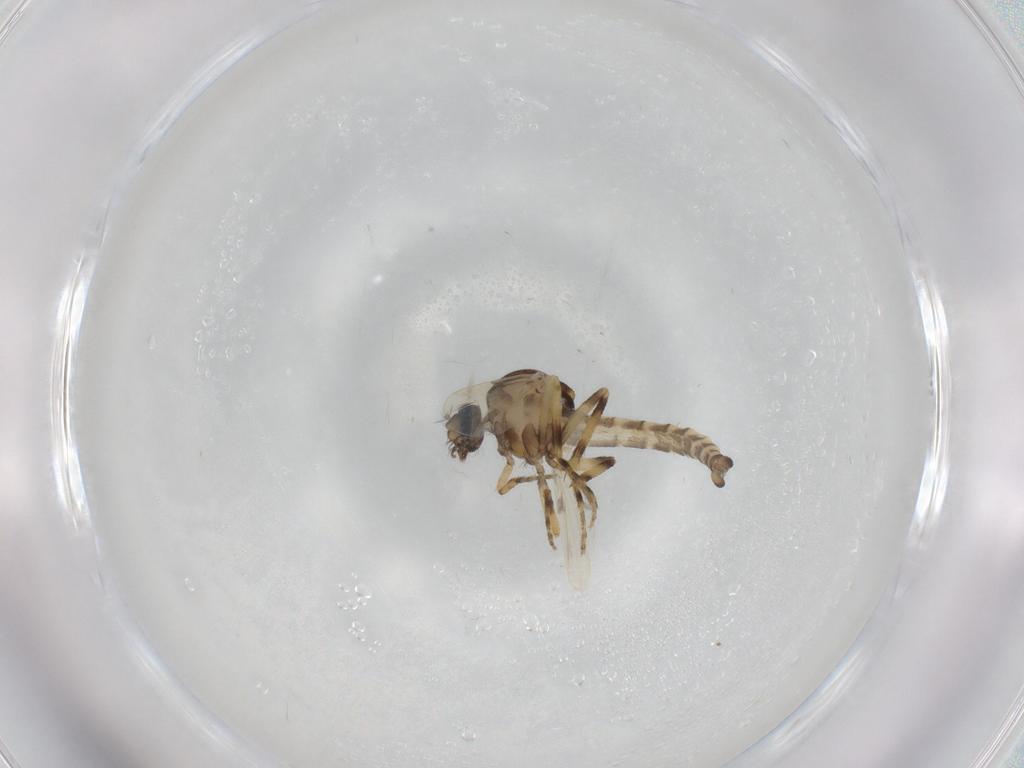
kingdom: Animalia
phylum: Arthropoda
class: Insecta
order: Diptera
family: Ceratopogonidae
